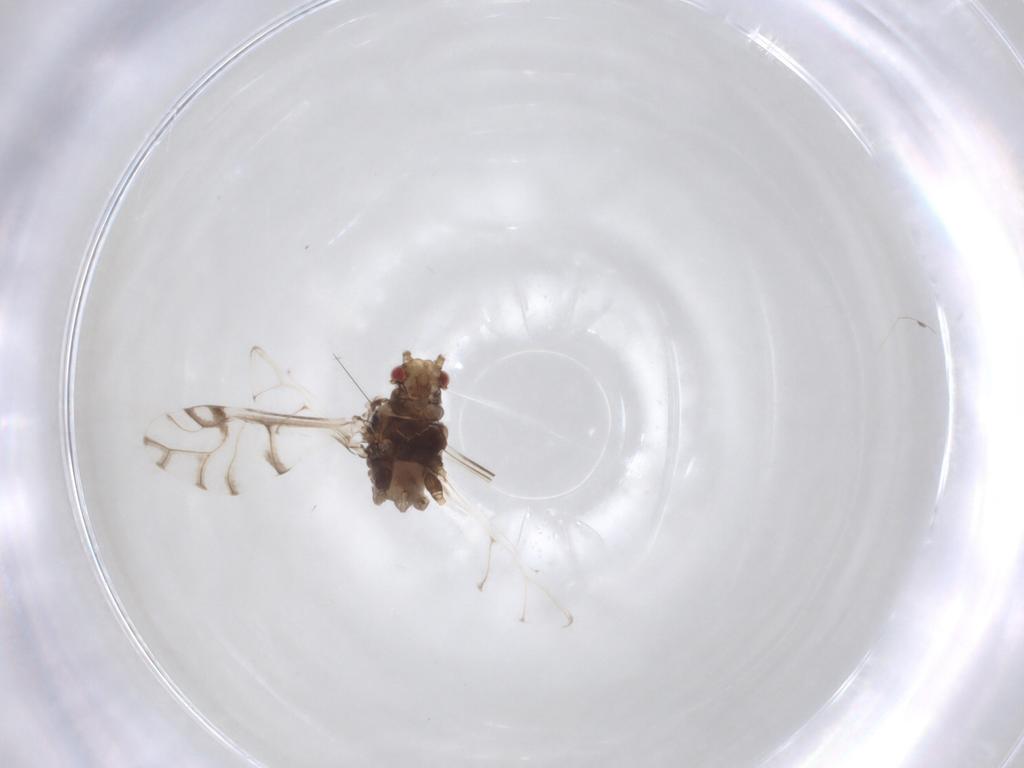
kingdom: Animalia
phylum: Arthropoda
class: Insecta
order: Hemiptera
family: Aphididae
